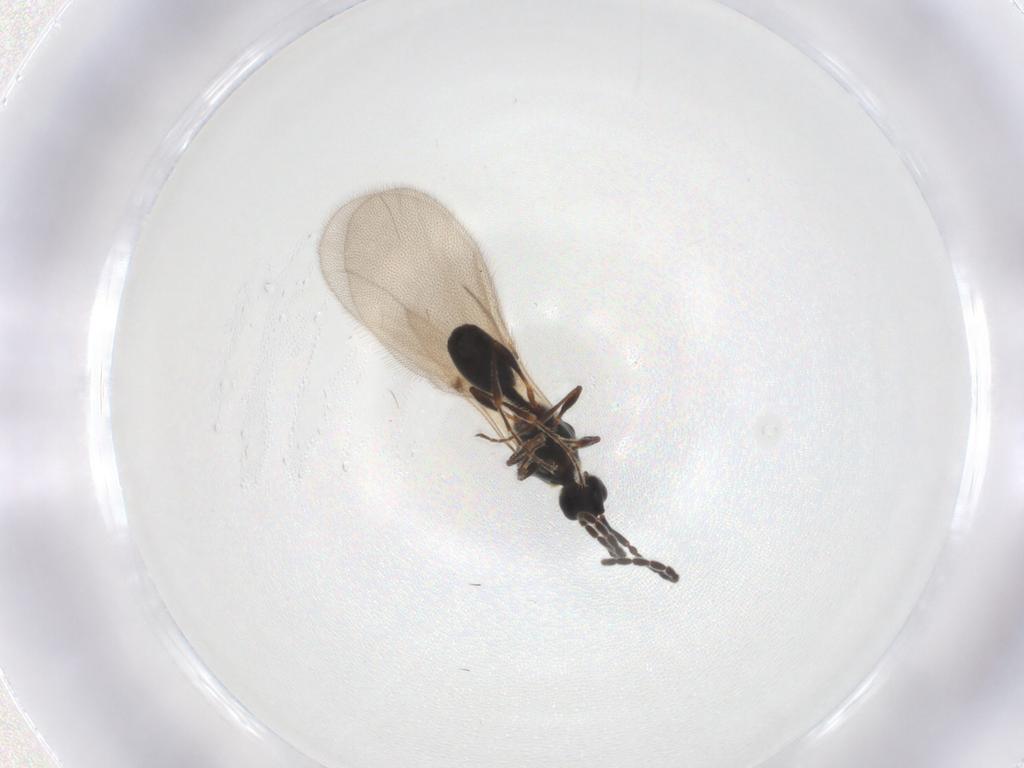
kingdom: Animalia
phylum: Arthropoda
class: Insecta
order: Hymenoptera
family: Diapriidae
